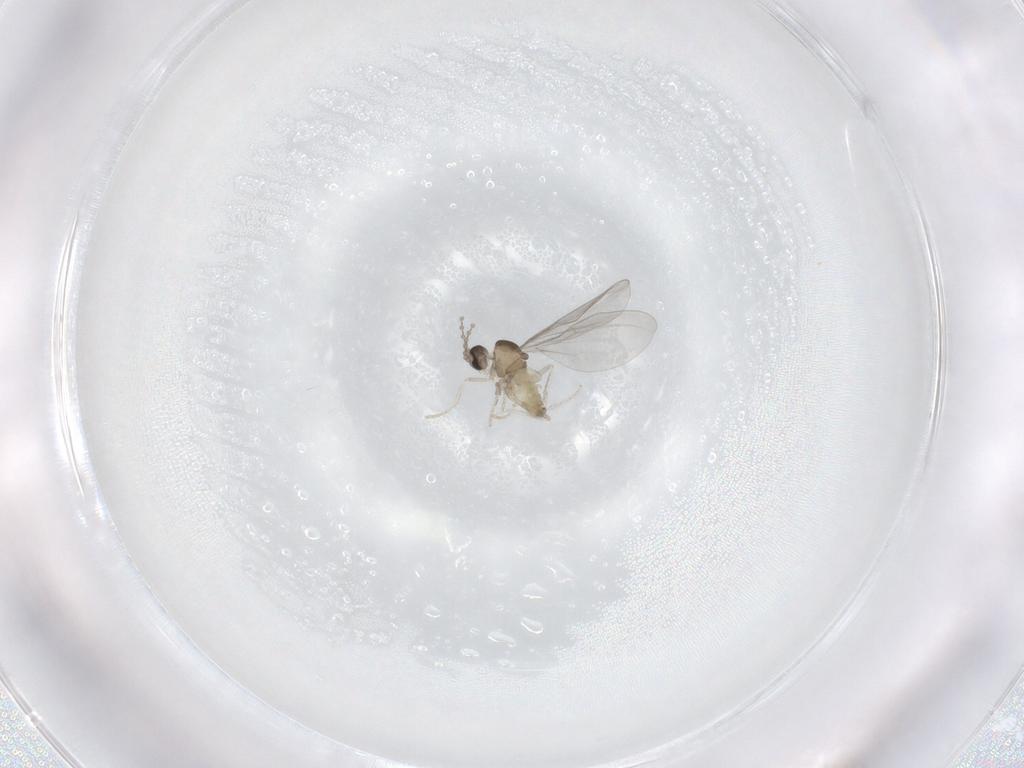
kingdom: Animalia
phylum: Arthropoda
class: Insecta
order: Diptera
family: Cecidomyiidae
